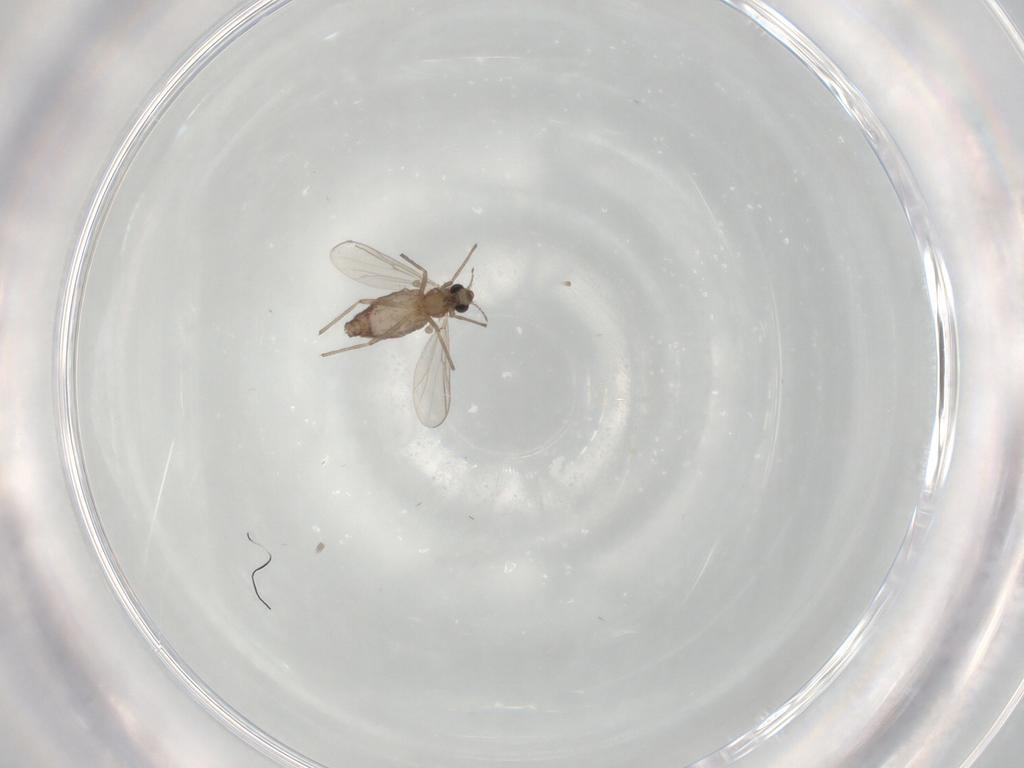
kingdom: Animalia
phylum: Arthropoda
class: Insecta
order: Diptera
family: Chironomidae
